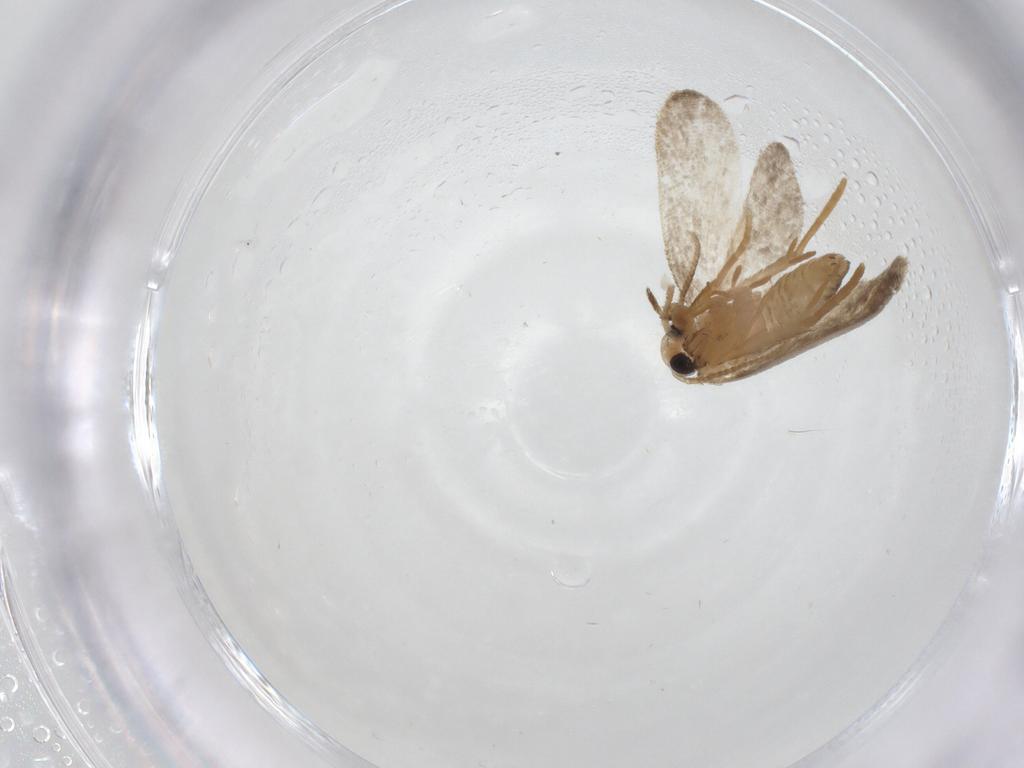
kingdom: Animalia
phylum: Arthropoda
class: Insecta
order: Lepidoptera
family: Psychidae
